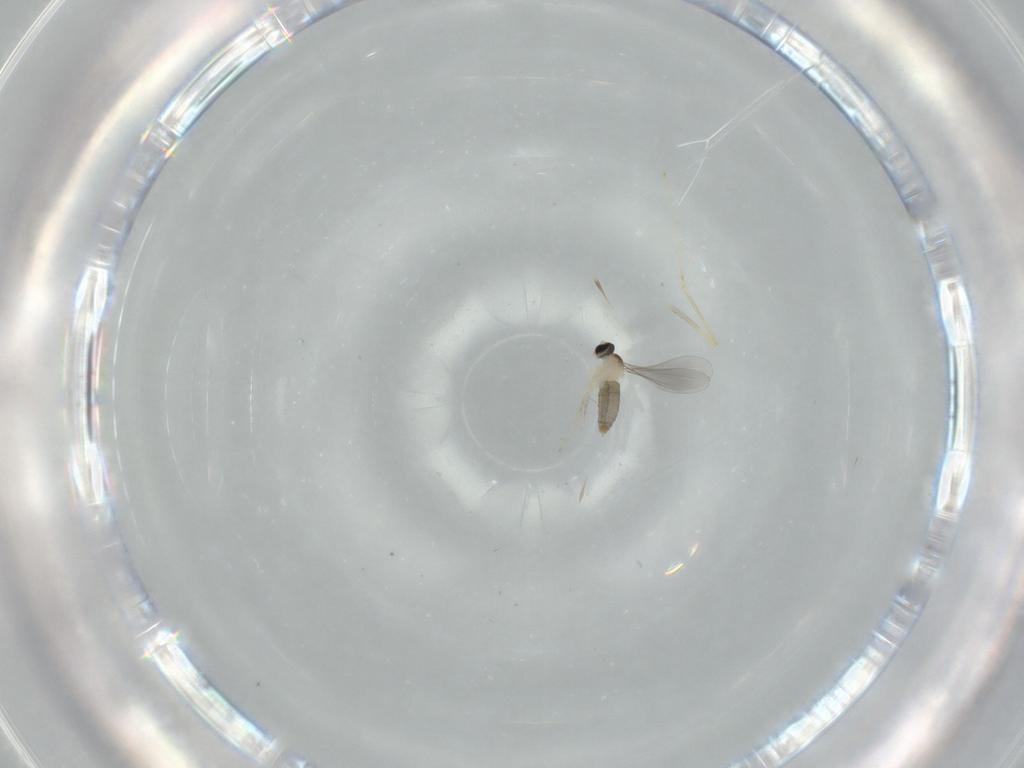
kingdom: Animalia
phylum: Arthropoda
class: Insecta
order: Diptera
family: Cecidomyiidae
